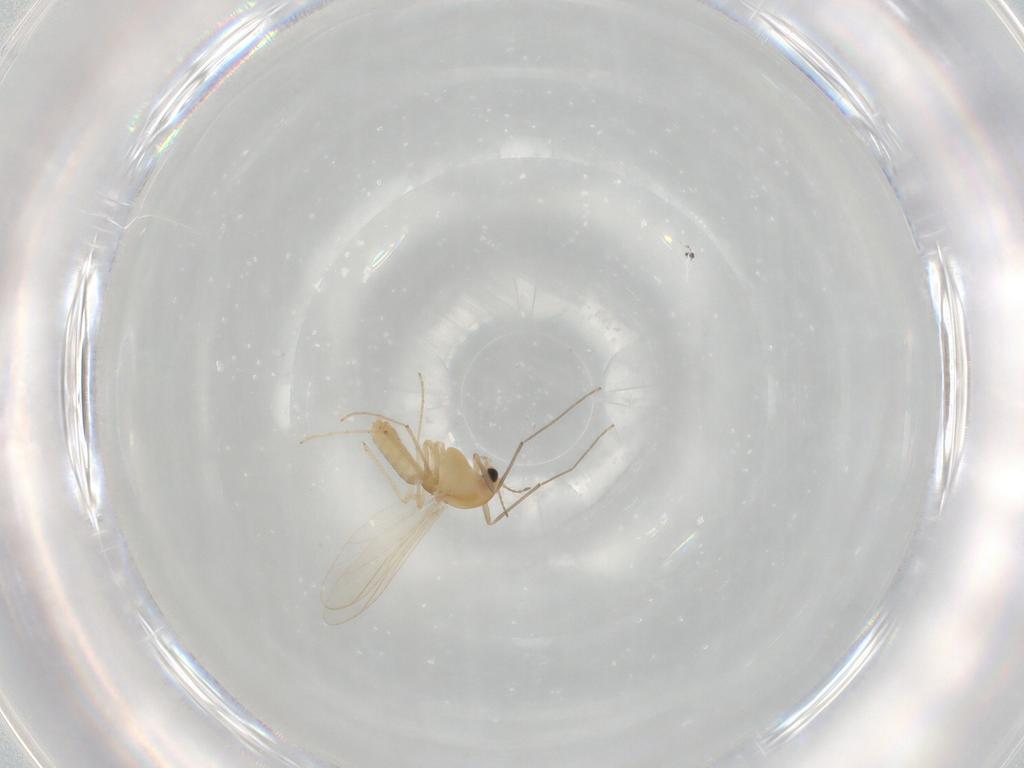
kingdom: Animalia
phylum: Arthropoda
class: Insecta
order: Diptera
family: Chironomidae
